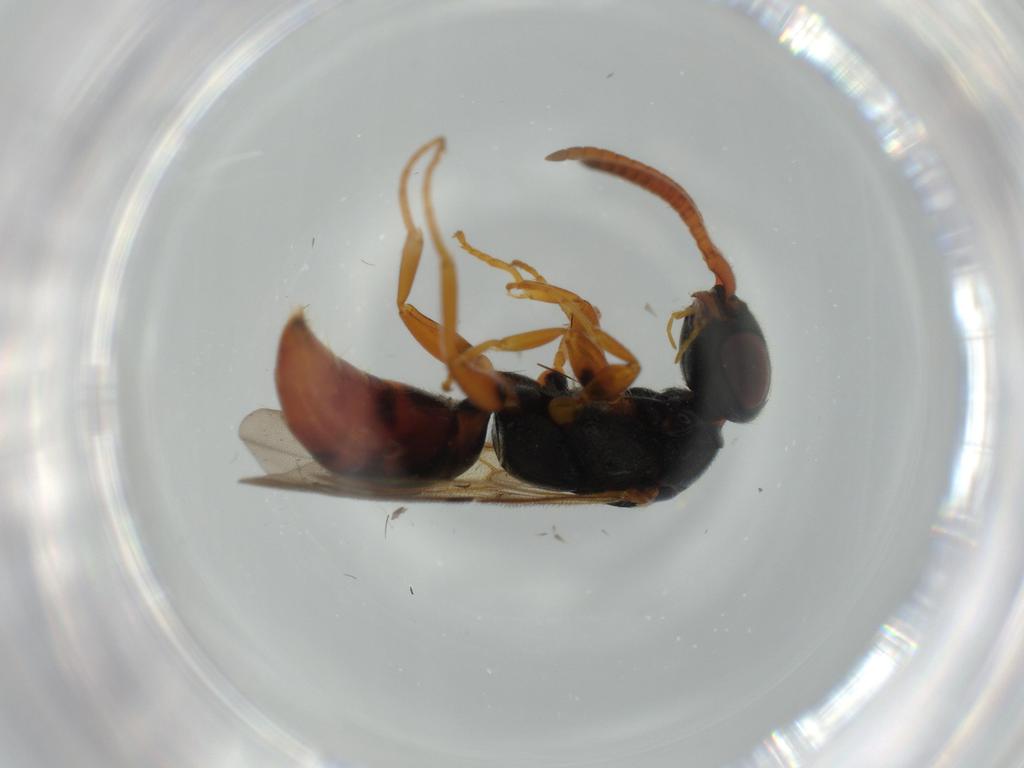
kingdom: Animalia
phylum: Arthropoda
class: Insecta
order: Hymenoptera
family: Bethylidae
